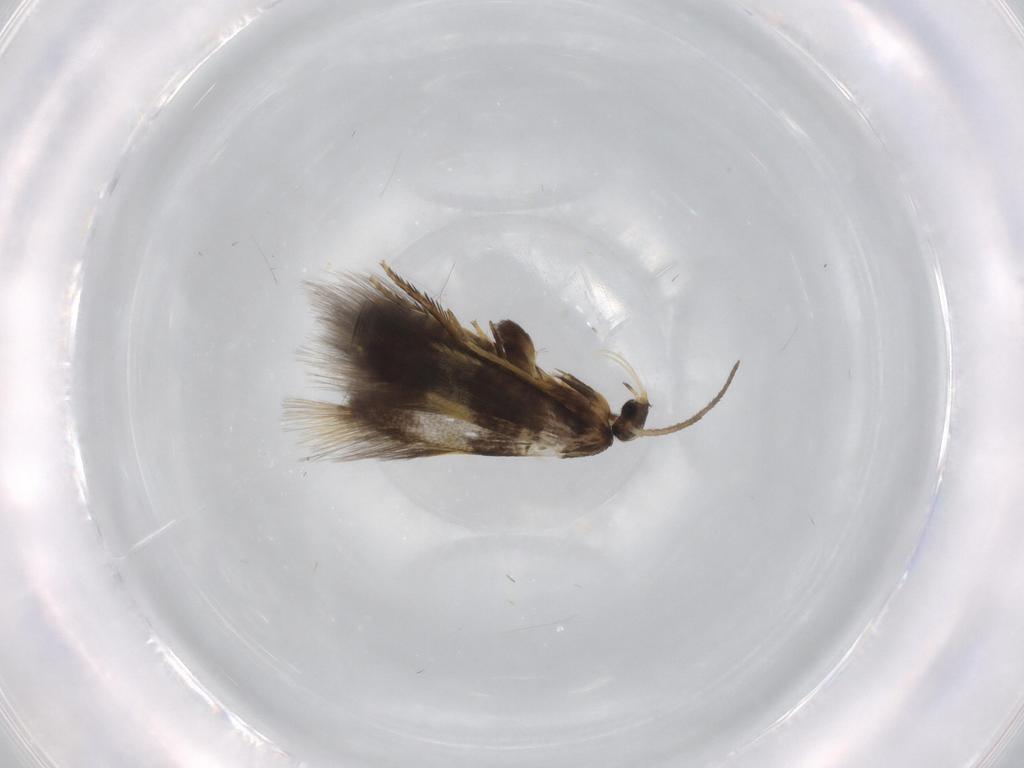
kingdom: Animalia
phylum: Arthropoda
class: Insecta
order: Lepidoptera
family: Heliozelidae
